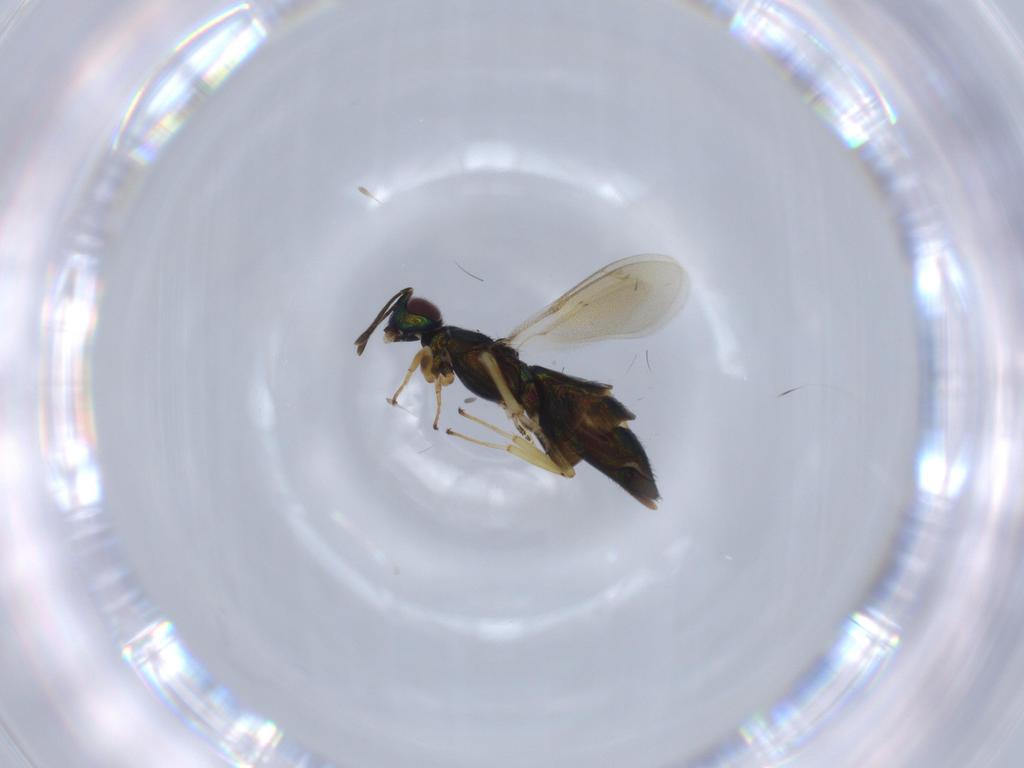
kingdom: Animalia
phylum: Arthropoda
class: Insecta
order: Hymenoptera
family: Eupelmidae
